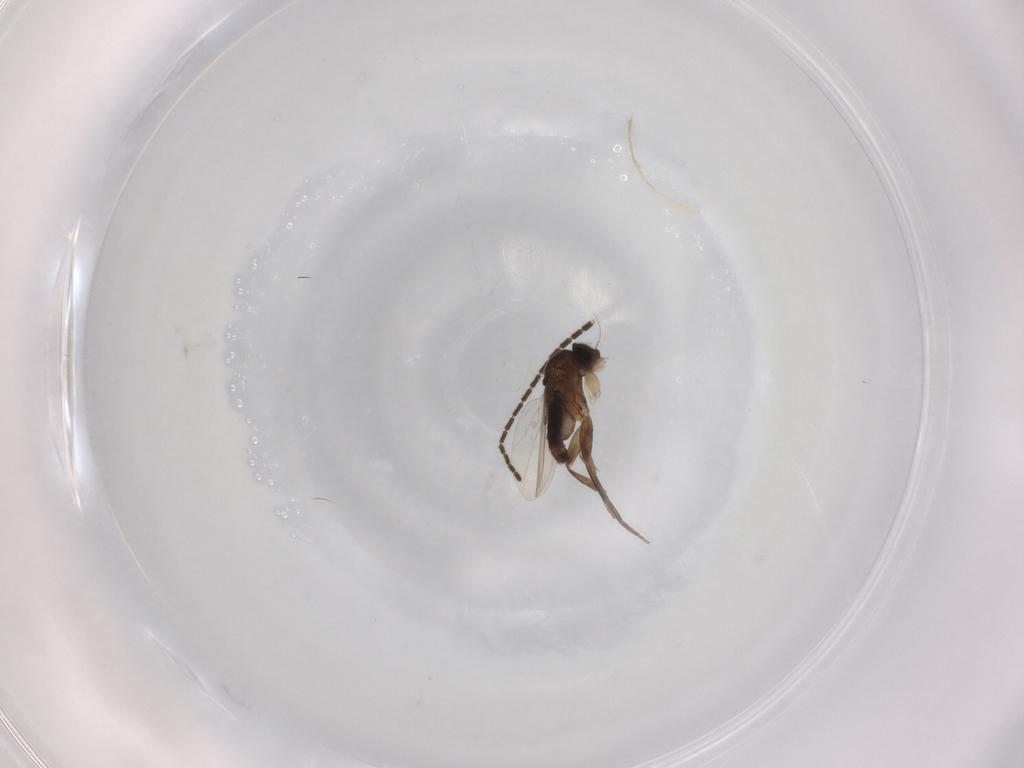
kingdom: Animalia
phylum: Arthropoda
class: Insecta
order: Diptera
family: Phoridae
